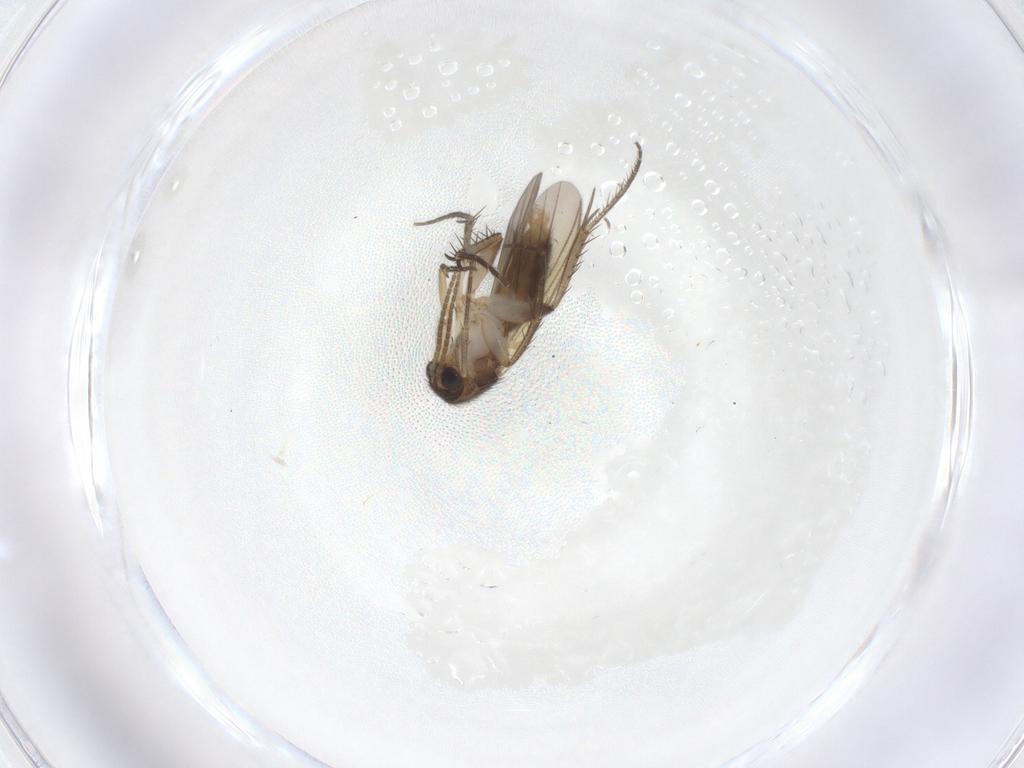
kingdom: Animalia
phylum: Arthropoda
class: Insecta
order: Diptera
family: Mycetophilidae
